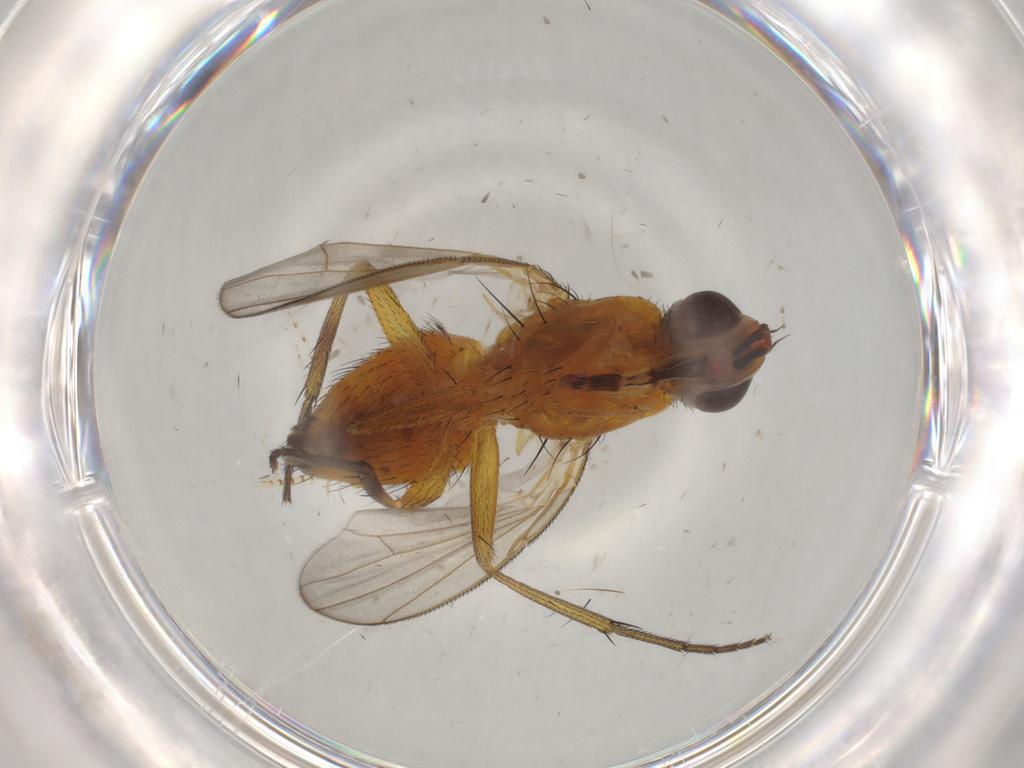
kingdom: Animalia
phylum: Arthropoda
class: Insecta
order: Diptera
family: Muscidae
